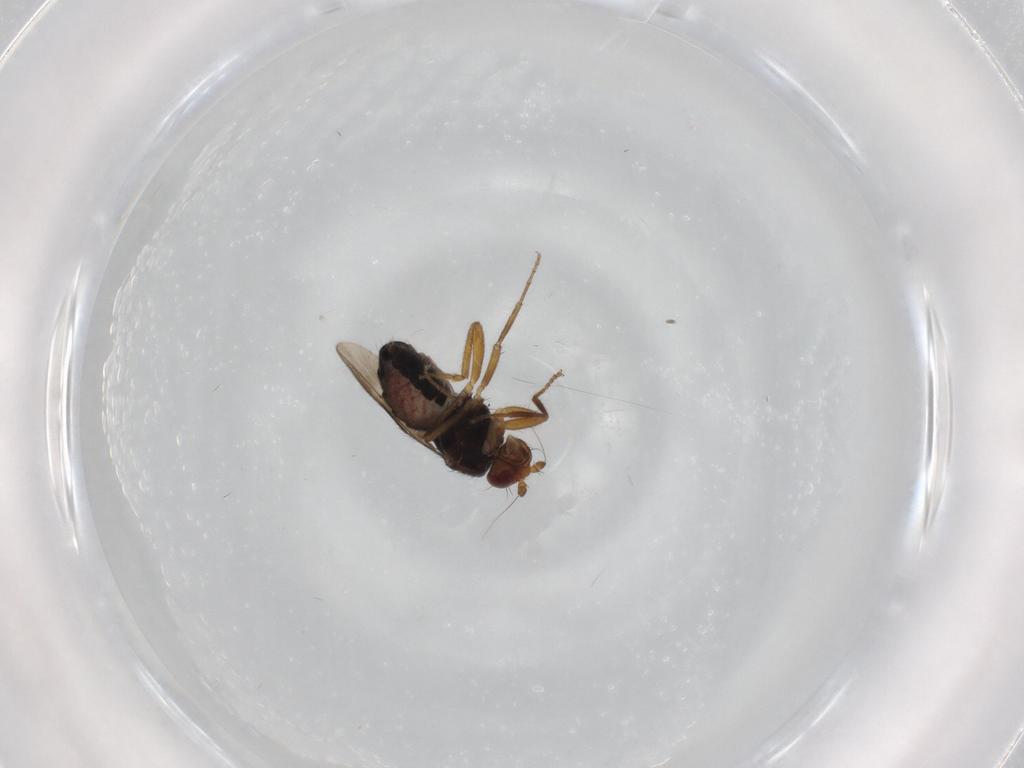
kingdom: Animalia
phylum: Arthropoda
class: Insecta
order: Diptera
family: Sphaeroceridae
